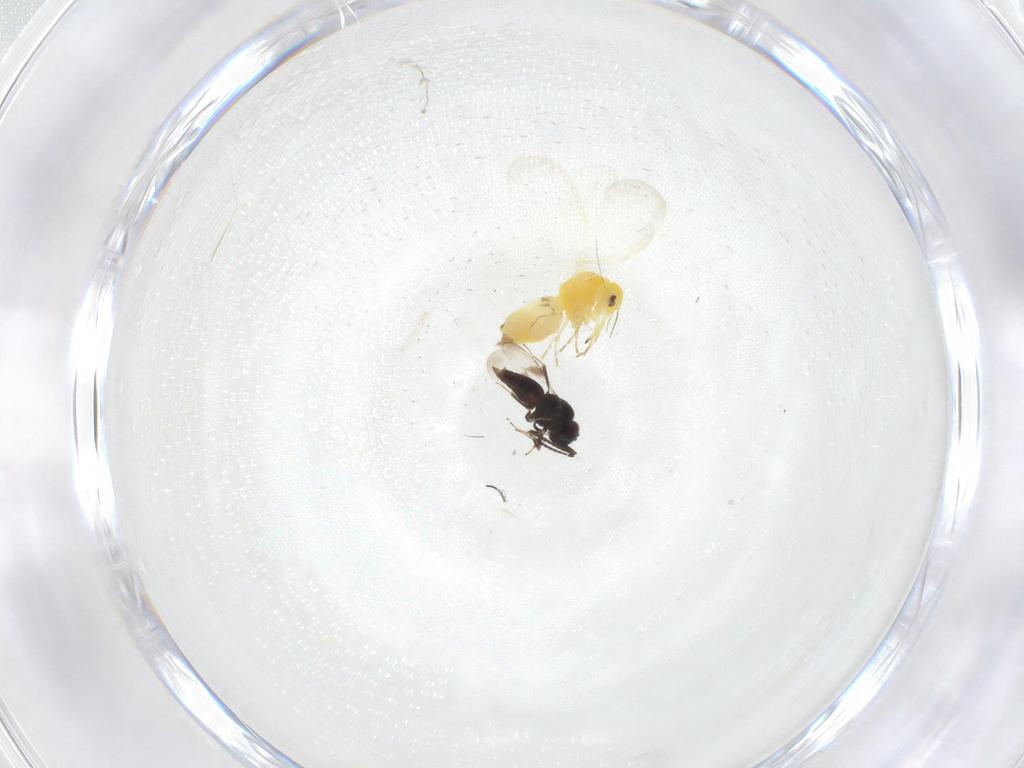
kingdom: Animalia
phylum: Arthropoda
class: Insecta
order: Hemiptera
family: Aleyrodidae
